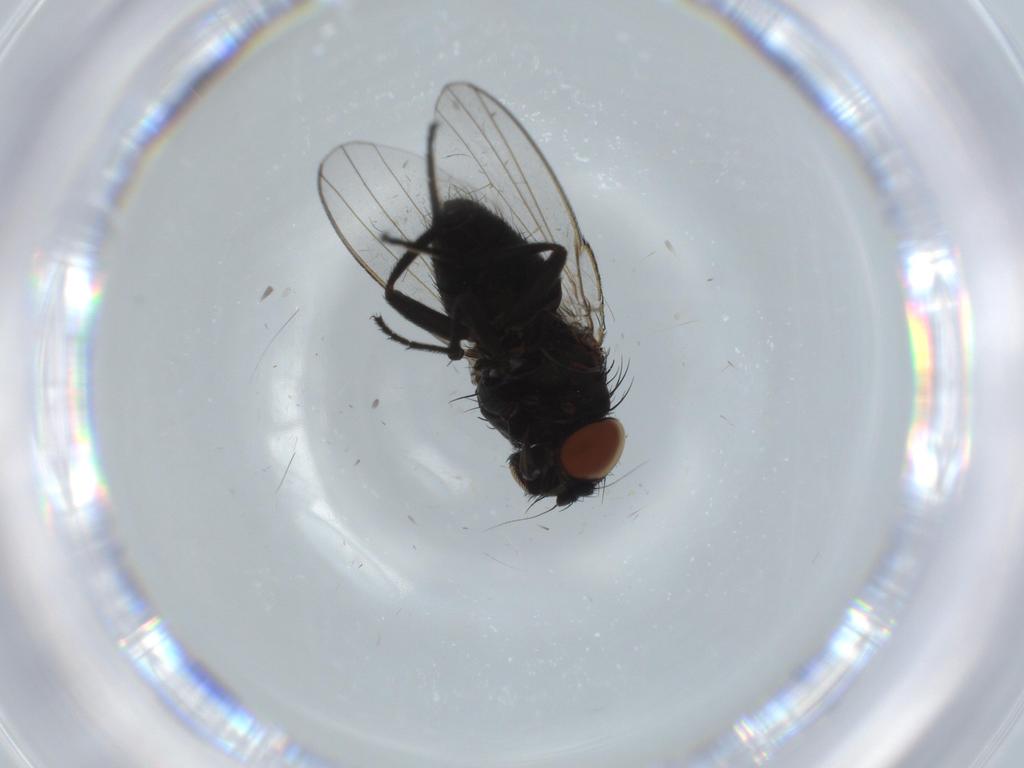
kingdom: Animalia
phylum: Arthropoda
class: Insecta
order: Diptera
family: Milichiidae
